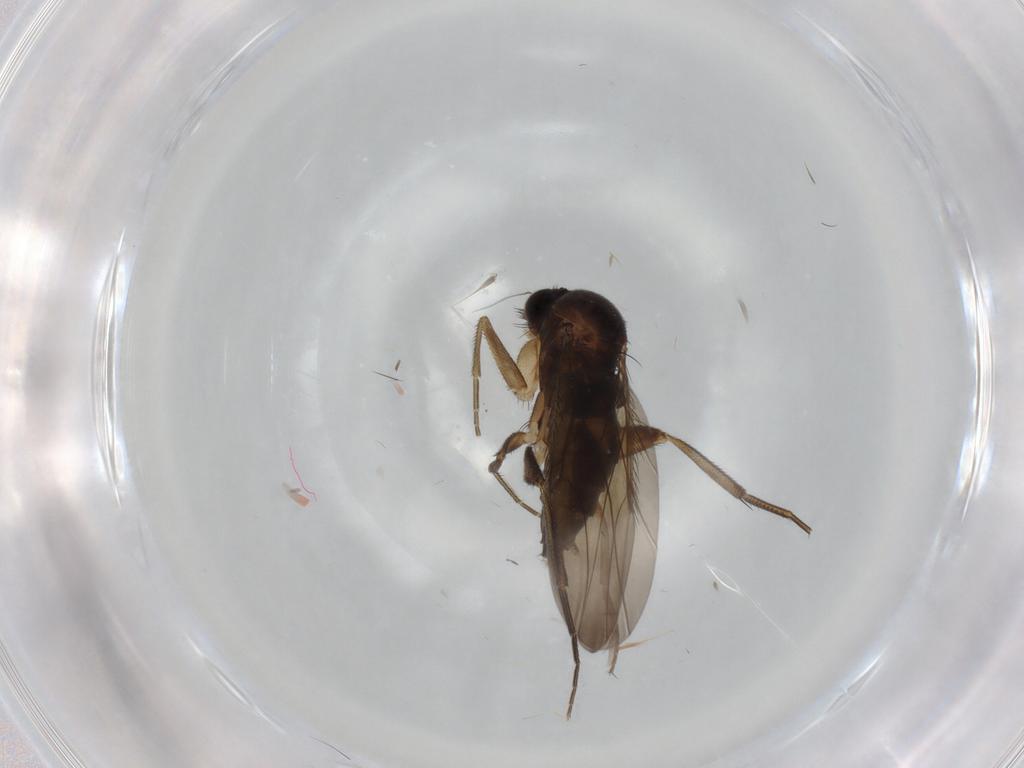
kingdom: Animalia
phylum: Arthropoda
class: Insecta
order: Diptera
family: Phoridae
